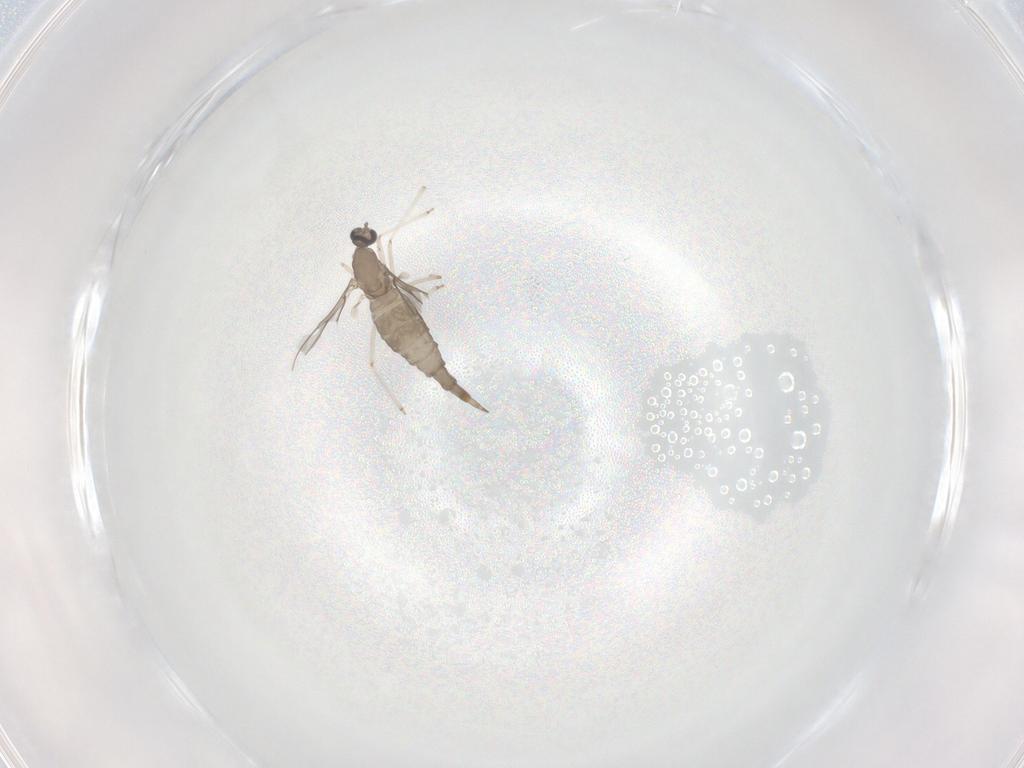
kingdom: Animalia
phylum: Arthropoda
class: Insecta
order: Diptera
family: Cecidomyiidae
